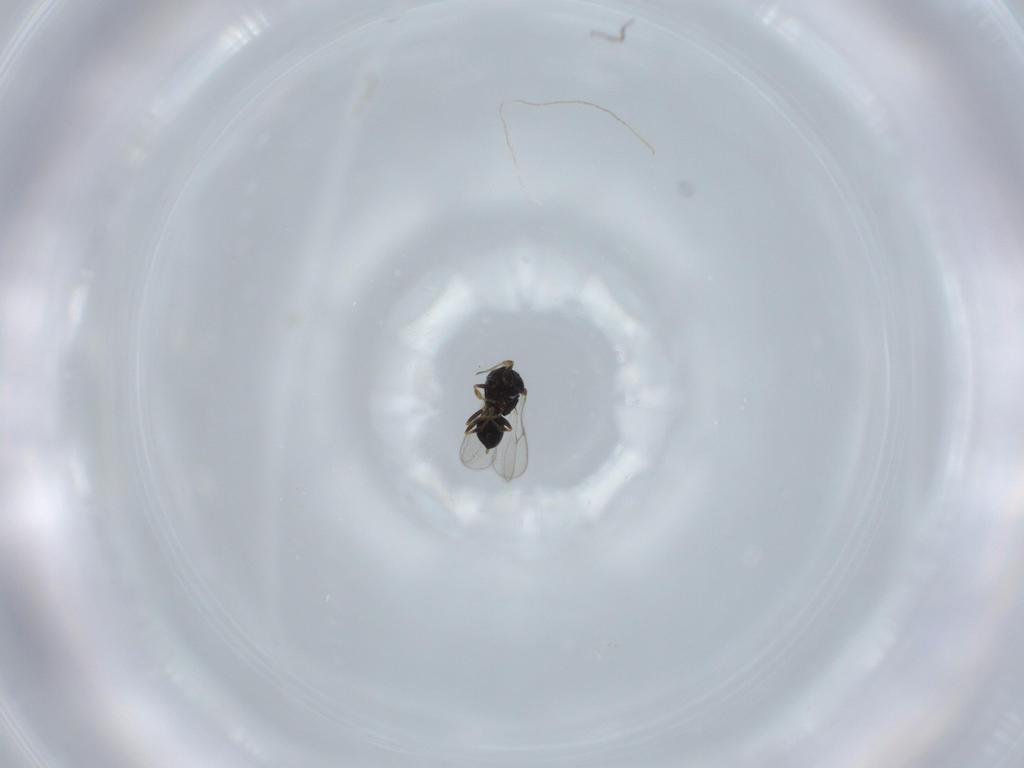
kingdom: Animalia
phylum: Arthropoda
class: Insecta
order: Hymenoptera
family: Scelionidae
